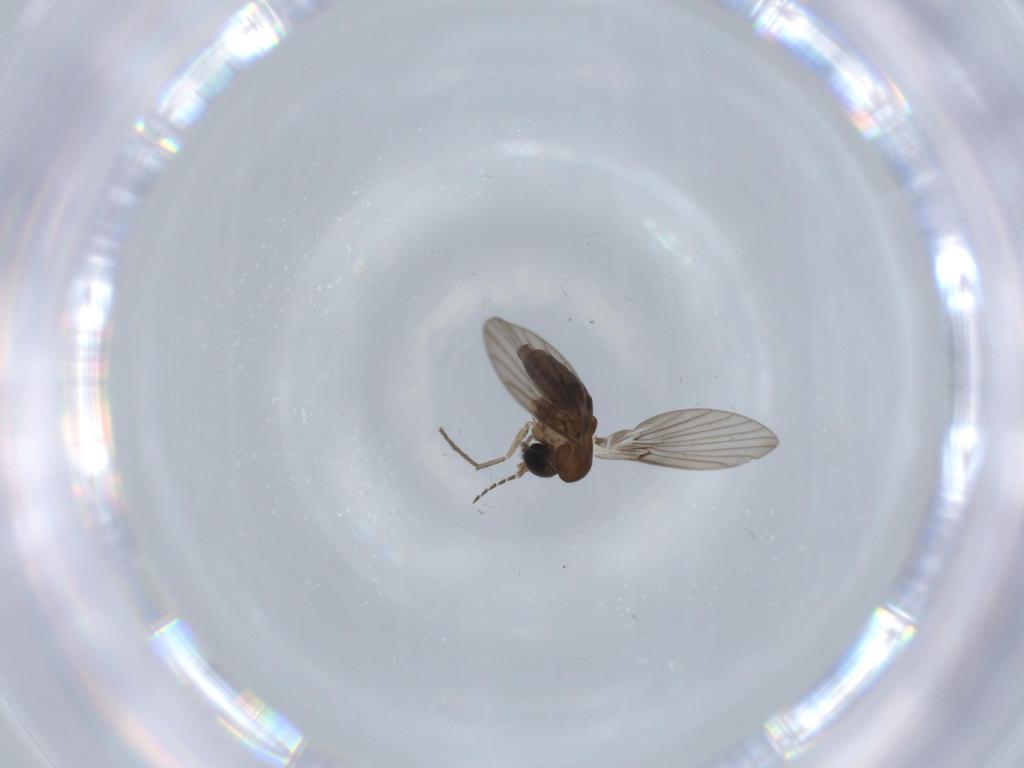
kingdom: Animalia
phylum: Arthropoda
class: Insecta
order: Diptera
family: Psychodidae
